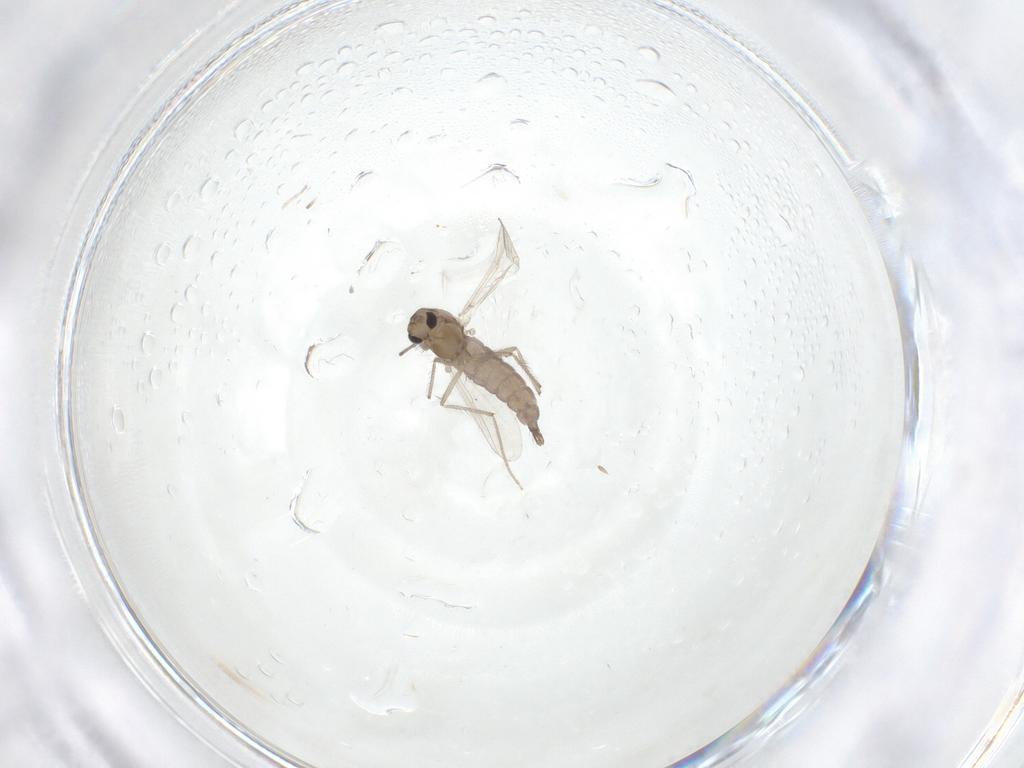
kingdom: Animalia
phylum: Arthropoda
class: Insecta
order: Diptera
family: Chironomidae
